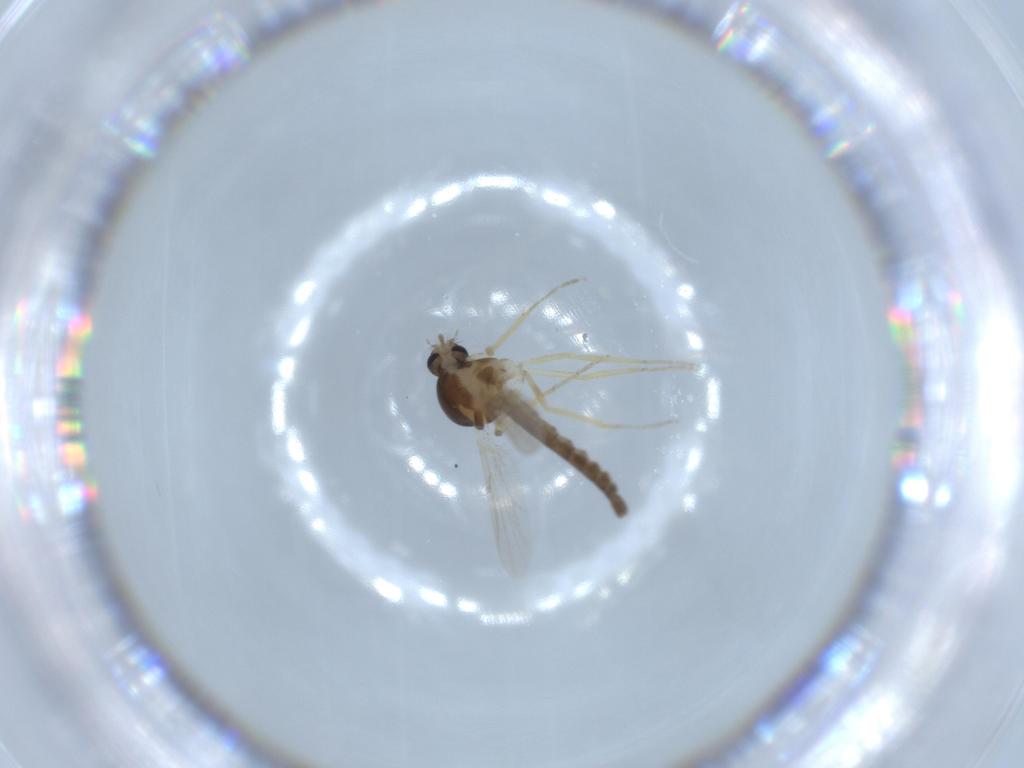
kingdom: Animalia
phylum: Arthropoda
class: Insecta
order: Diptera
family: Ceratopogonidae
